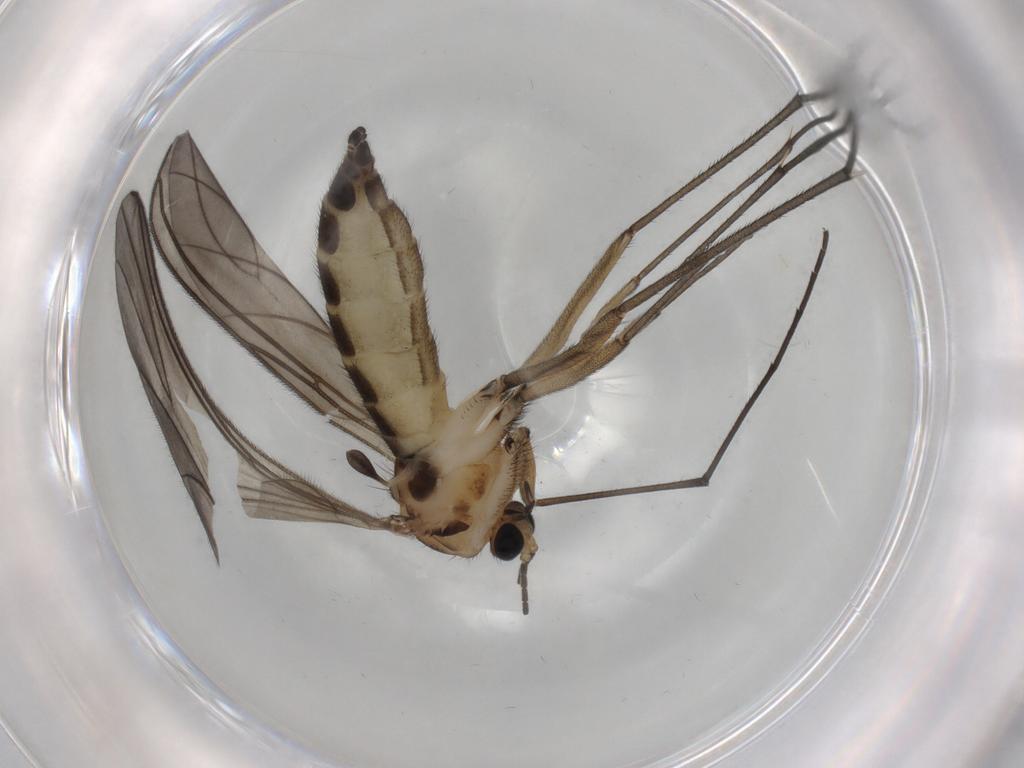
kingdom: Animalia
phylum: Arthropoda
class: Insecta
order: Diptera
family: Sciaridae
